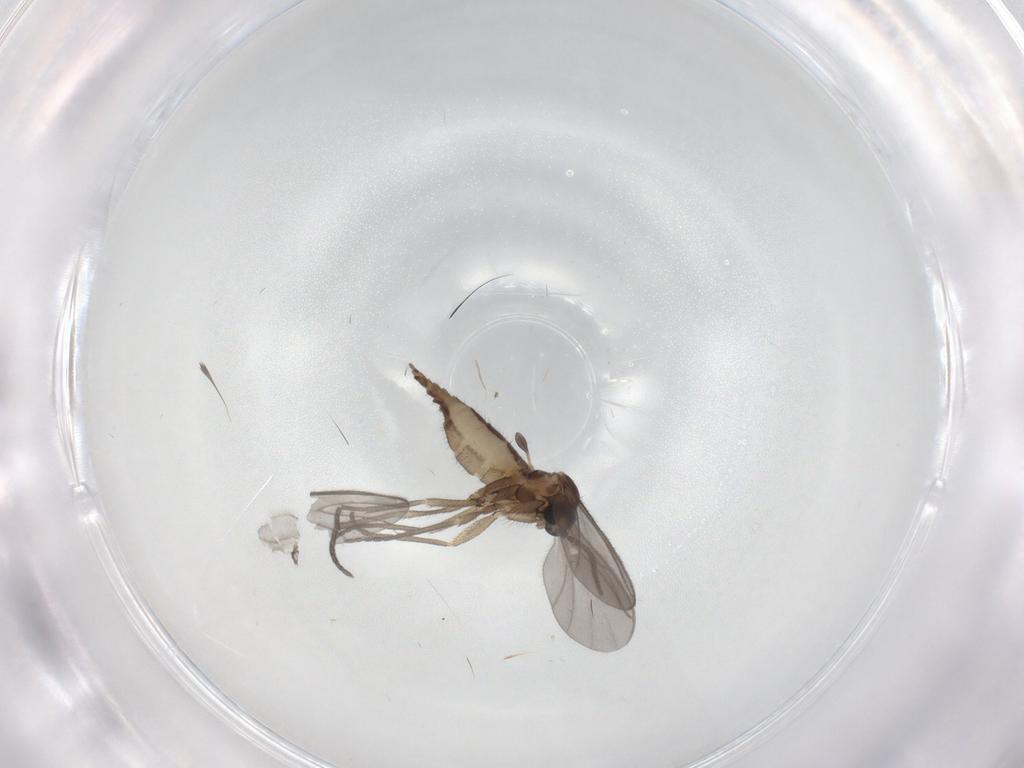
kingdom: Animalia
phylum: Arthropoda
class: Insecta
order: Diptera
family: Sciaridae
